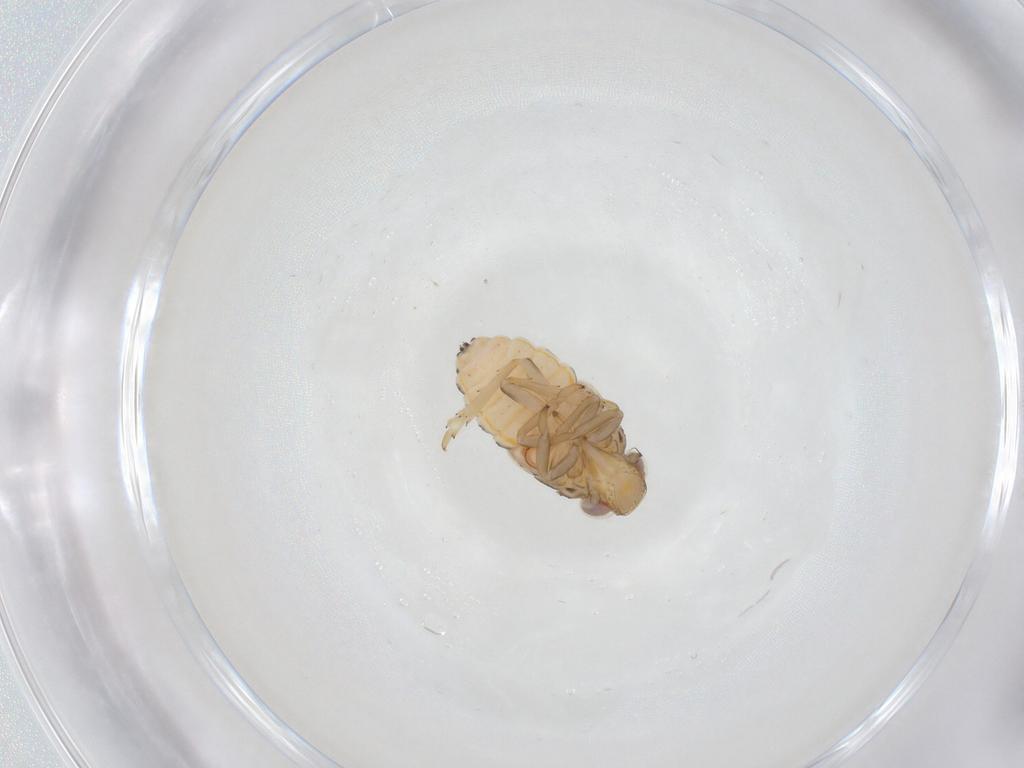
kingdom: Animalia
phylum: Arthropoda
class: Insecta
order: Hemiptera
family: Issidae
